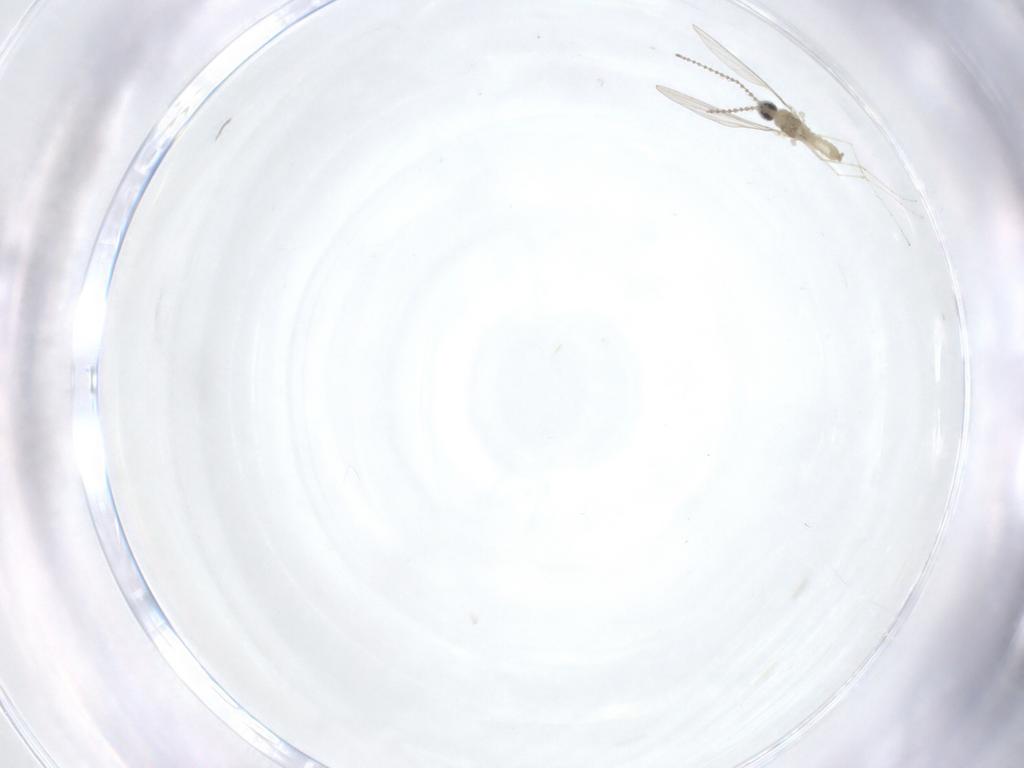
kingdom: Animalia
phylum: Arthropoda
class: Insecta
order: Diptera
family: Cecidomyiidae
